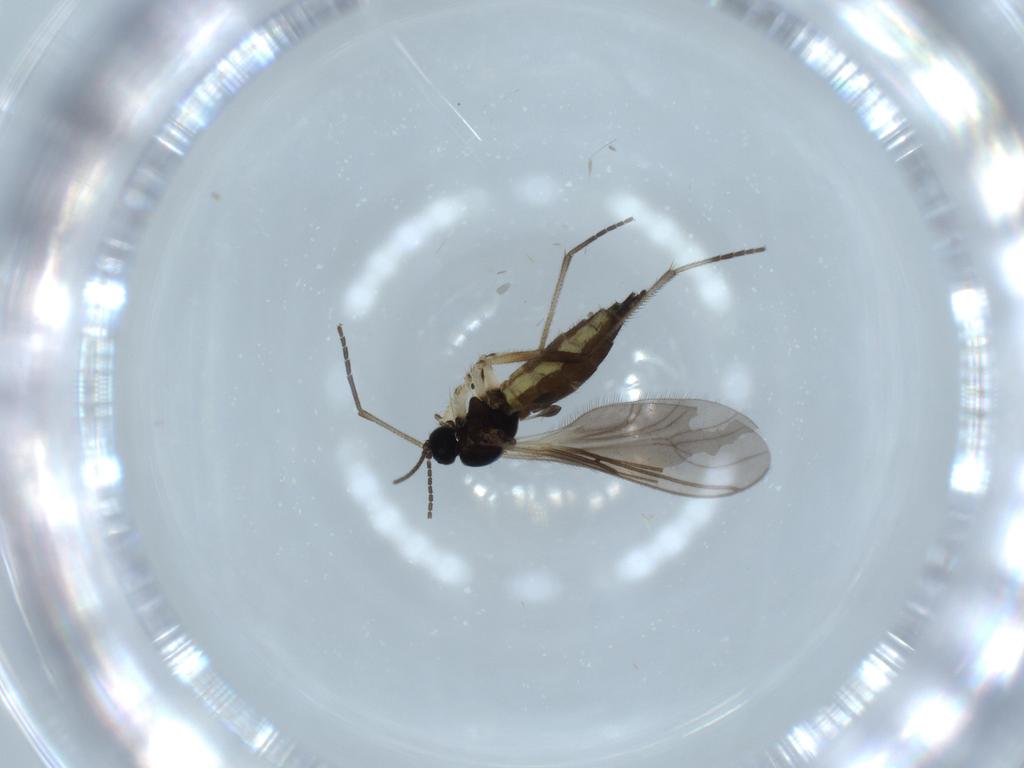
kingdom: Animalia
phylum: Arthropoda
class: Insecta
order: Diptera
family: Sciaridae
